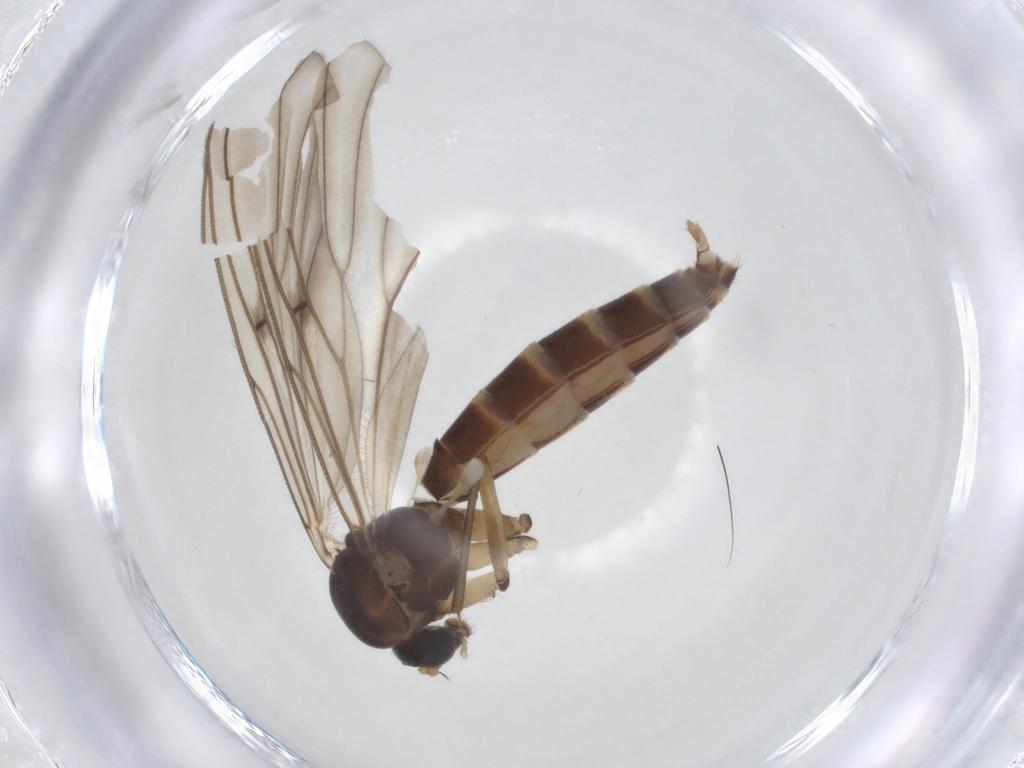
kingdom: Animalia
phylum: Arthropoda
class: Insecta
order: Diptera
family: Mycetophilidae
